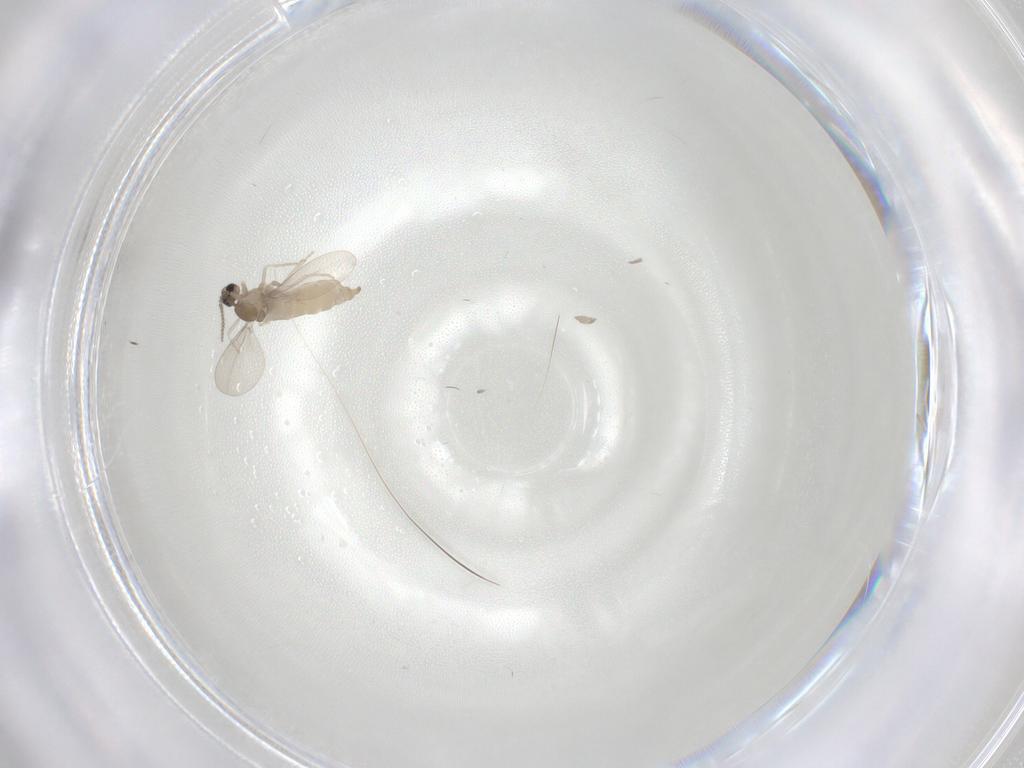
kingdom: Animalia
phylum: Arthropoda
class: Insecta
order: Diptera
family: Cecidomyiidae
